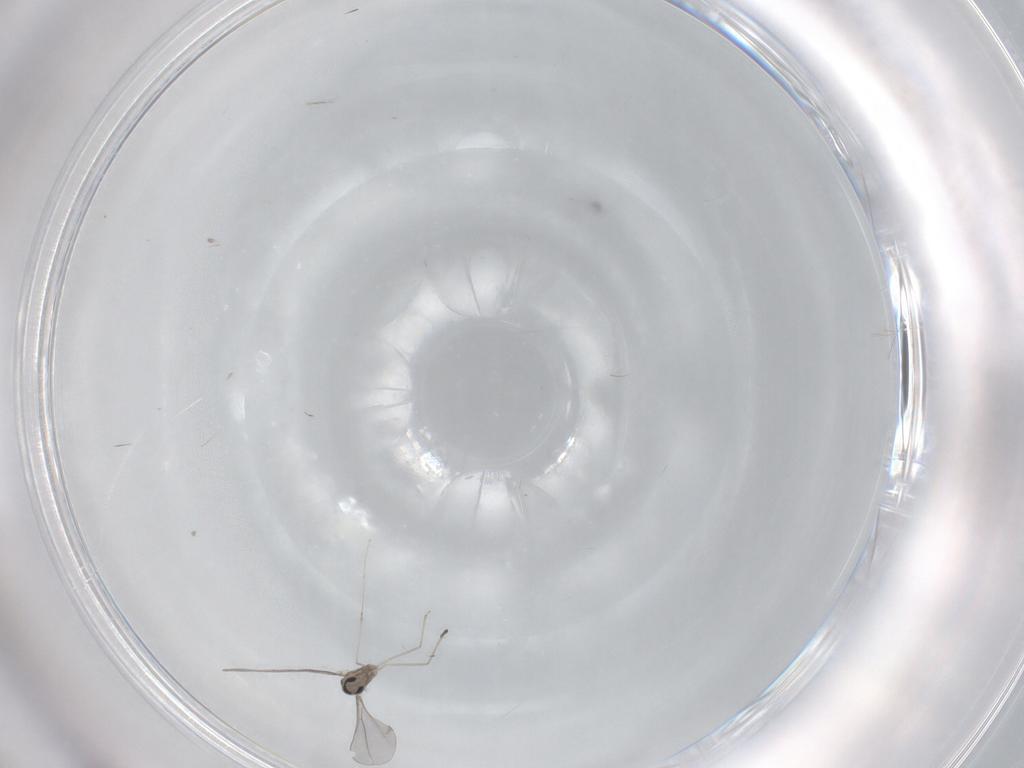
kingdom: Animalia
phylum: Arthropoda
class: Insecta
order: Diptera
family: Cecidomyiidae
